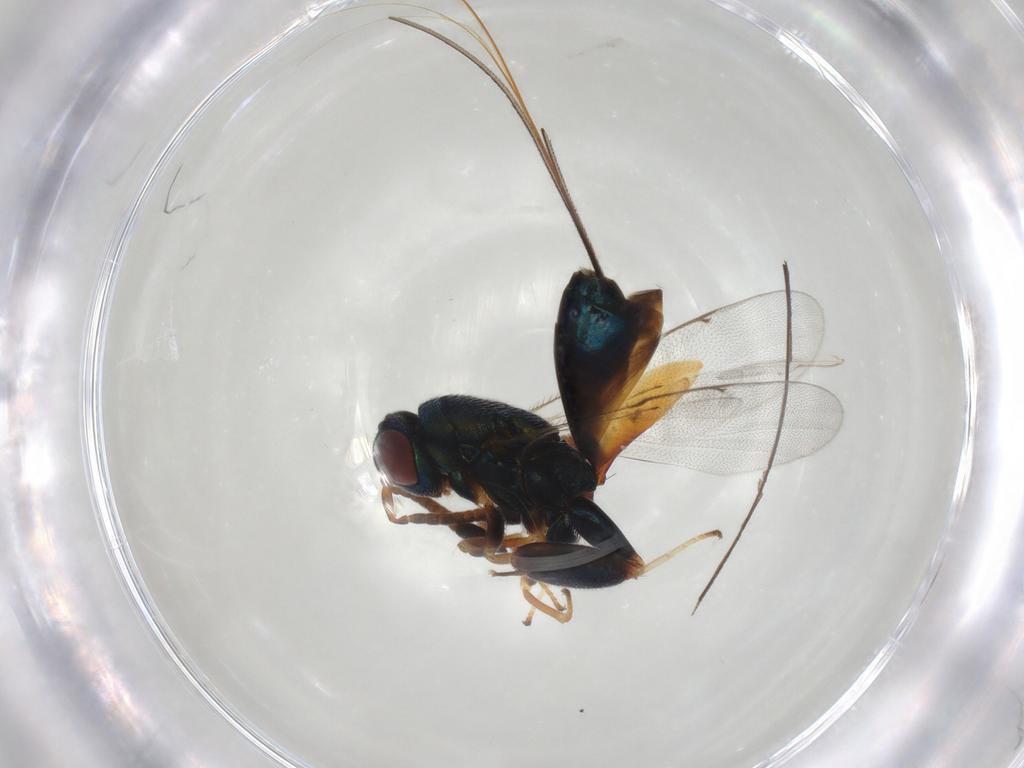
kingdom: Animalia
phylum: Arthropoda
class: Insecta
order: Hymenoptera
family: Torymidae
